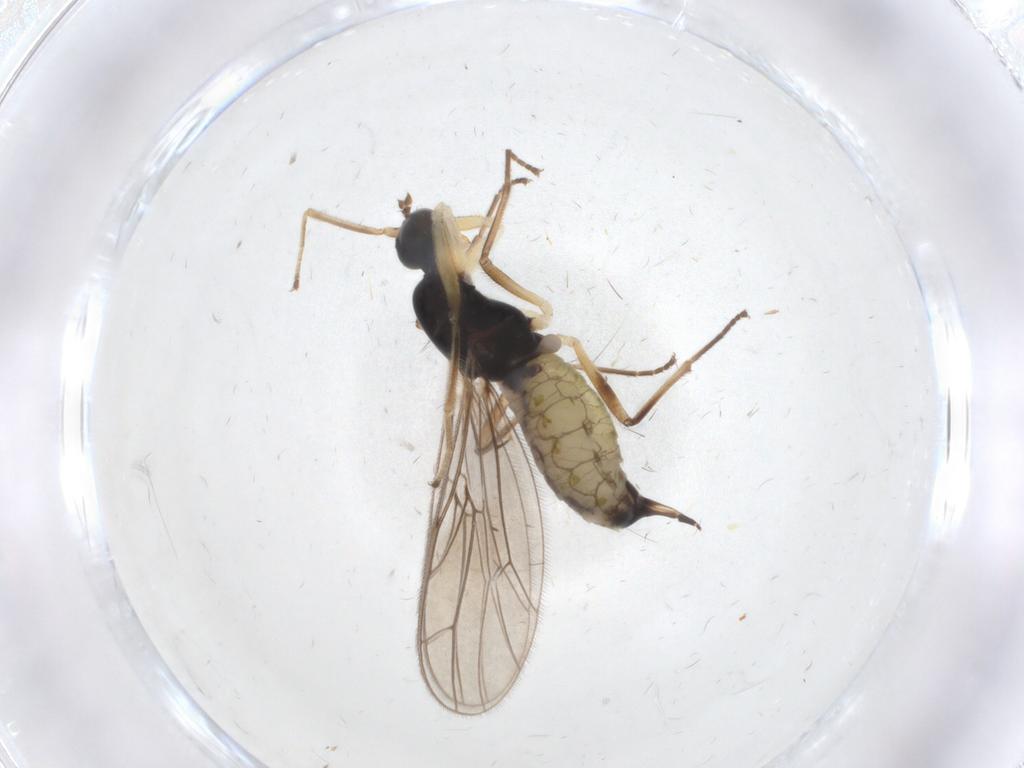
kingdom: Animalia
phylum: Arthropoda
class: Insecta
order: Diptera
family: Empididae
